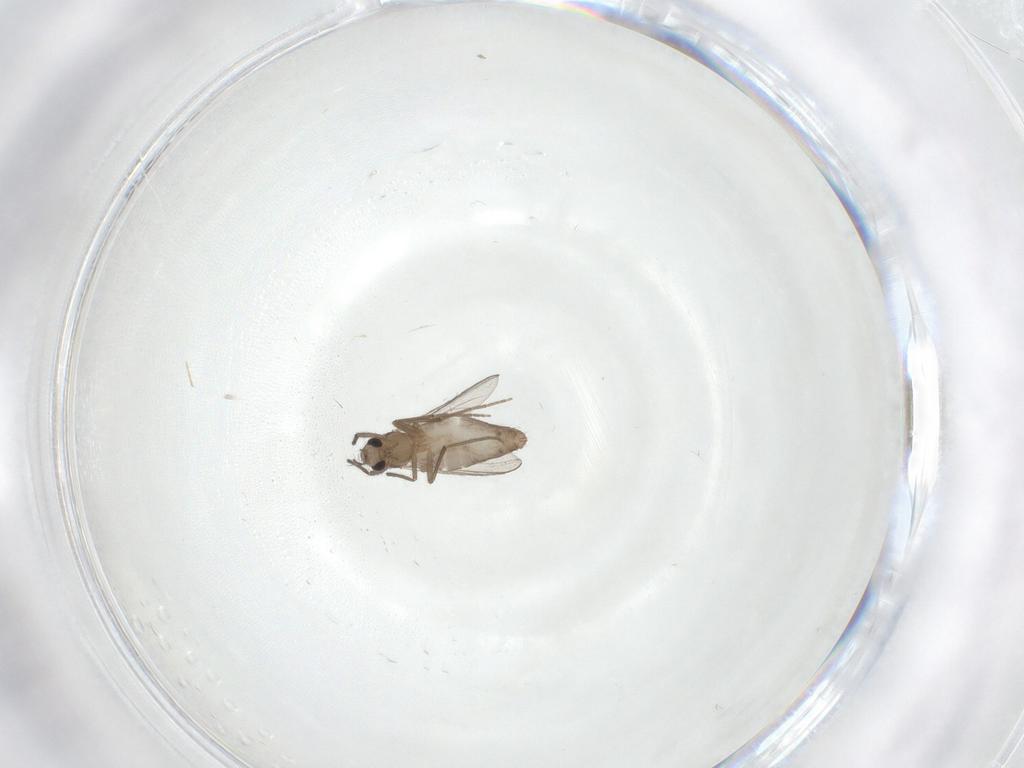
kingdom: Animalia
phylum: Arthropoda
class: Insecta
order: Diptera
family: Chironomidae
